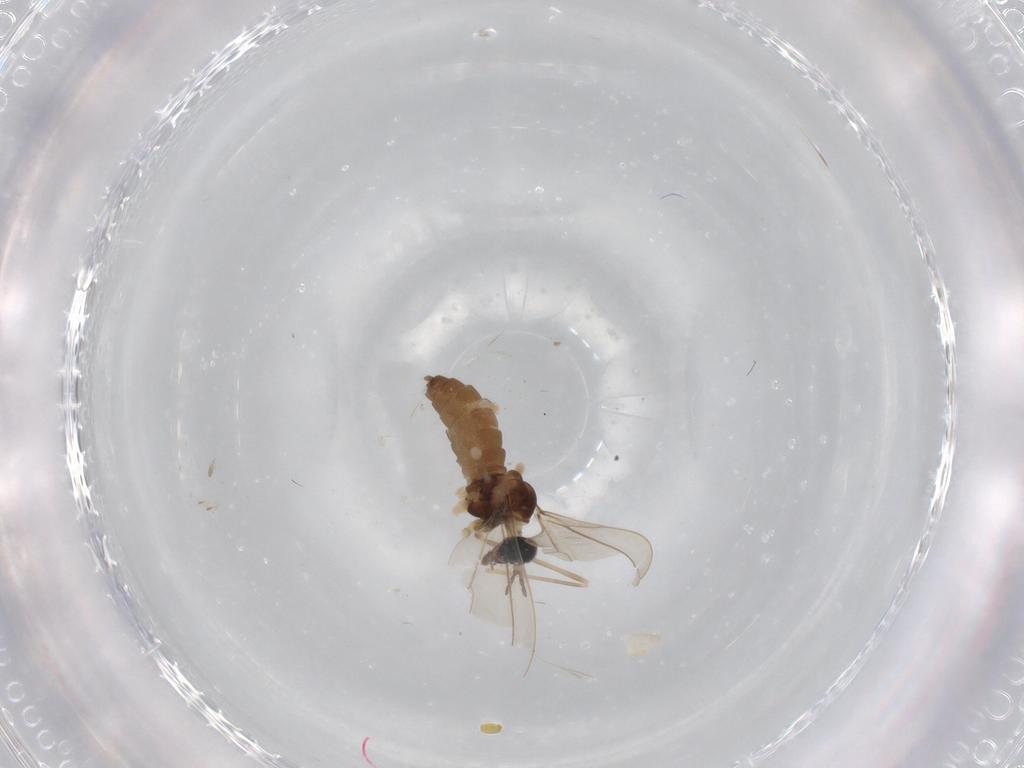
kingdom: Animalia
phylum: Arthropoda
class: Insecta
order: Diptera
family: Cecidomyiidae
